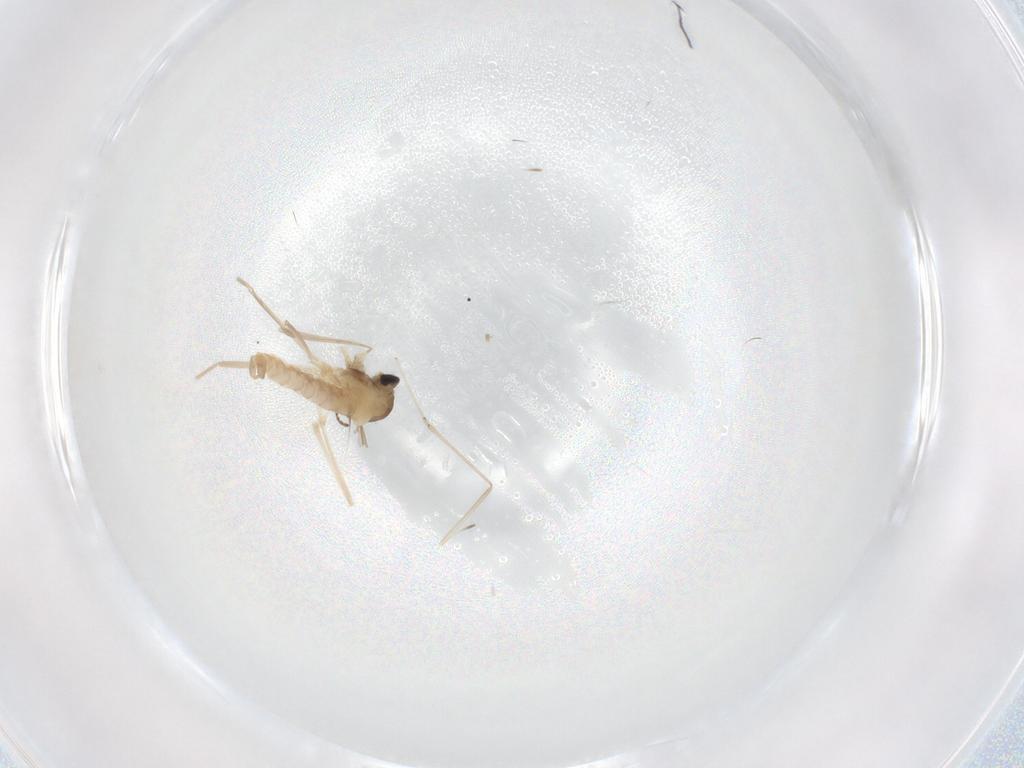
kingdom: Animalia
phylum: Arthropoda
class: Insecta
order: Diptera
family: Cecidomyiidae
